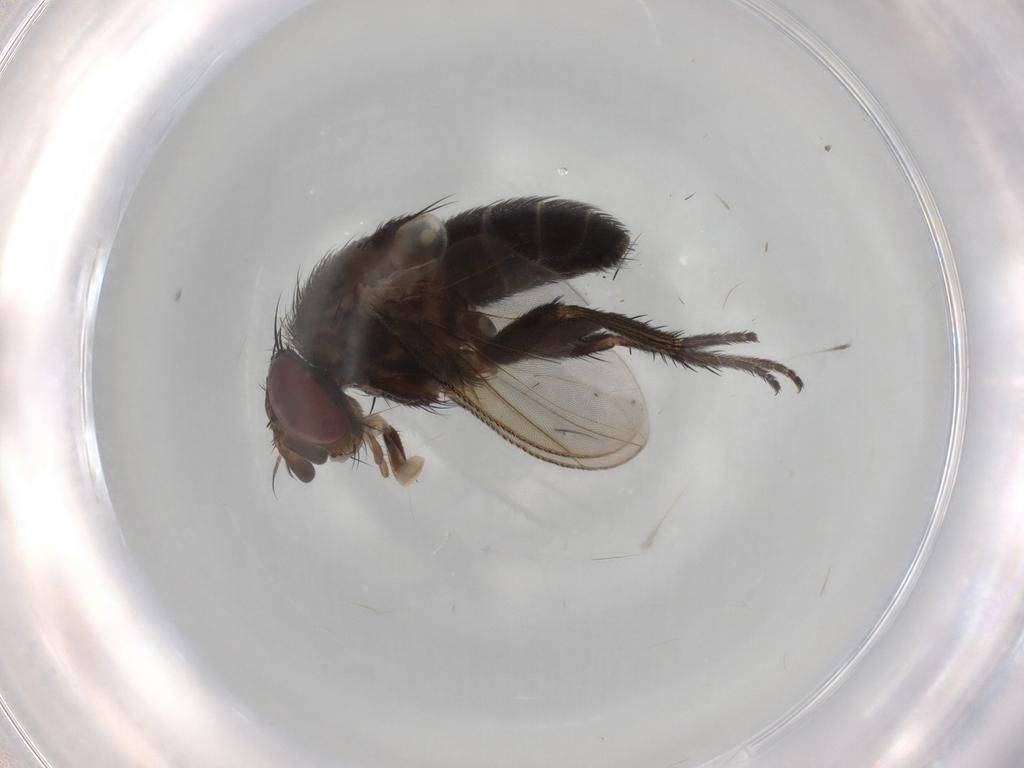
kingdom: Animalia
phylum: Arthropoda
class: Insecta
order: Diptera
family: Tachinidae
